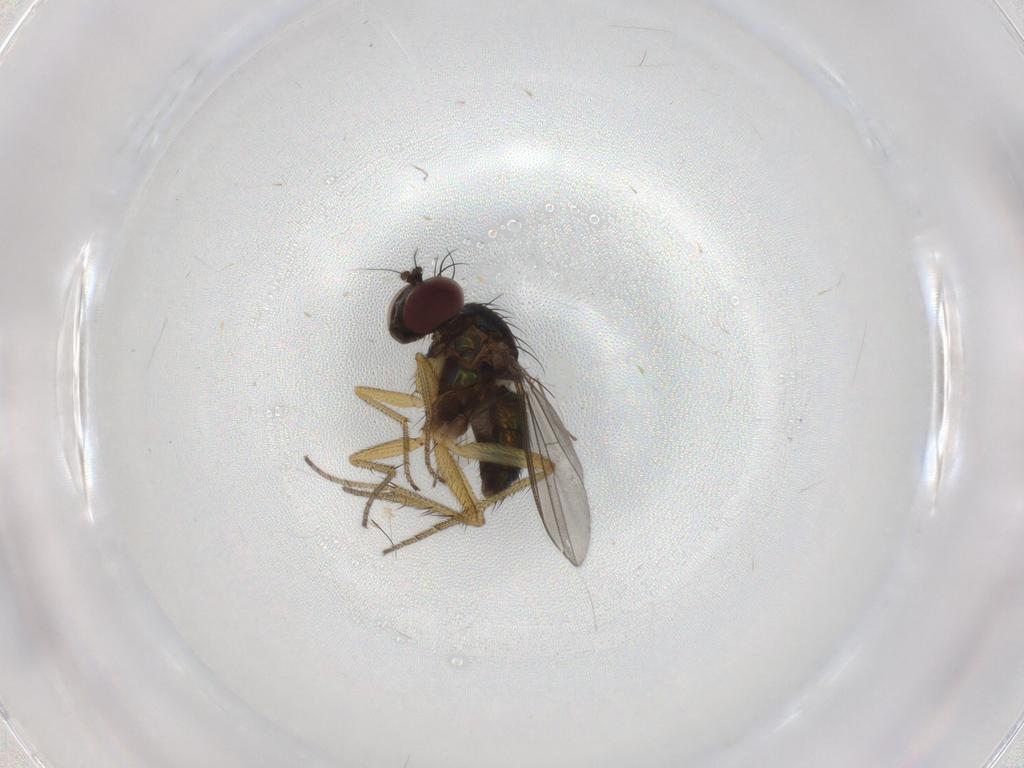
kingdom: Animalia
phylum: Arthropoda
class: Insecta
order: Diptera
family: Dolichopodidae
